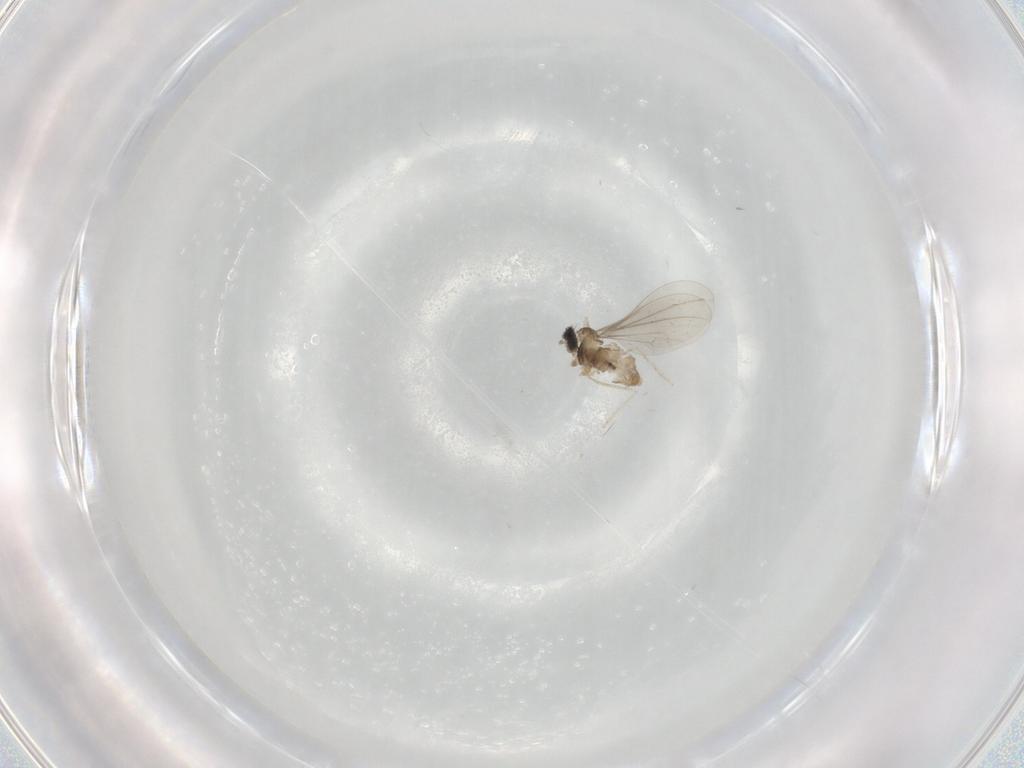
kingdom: Animalia
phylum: Arthropoda
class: Insecta
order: Diptera
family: Cecidomyiidae
